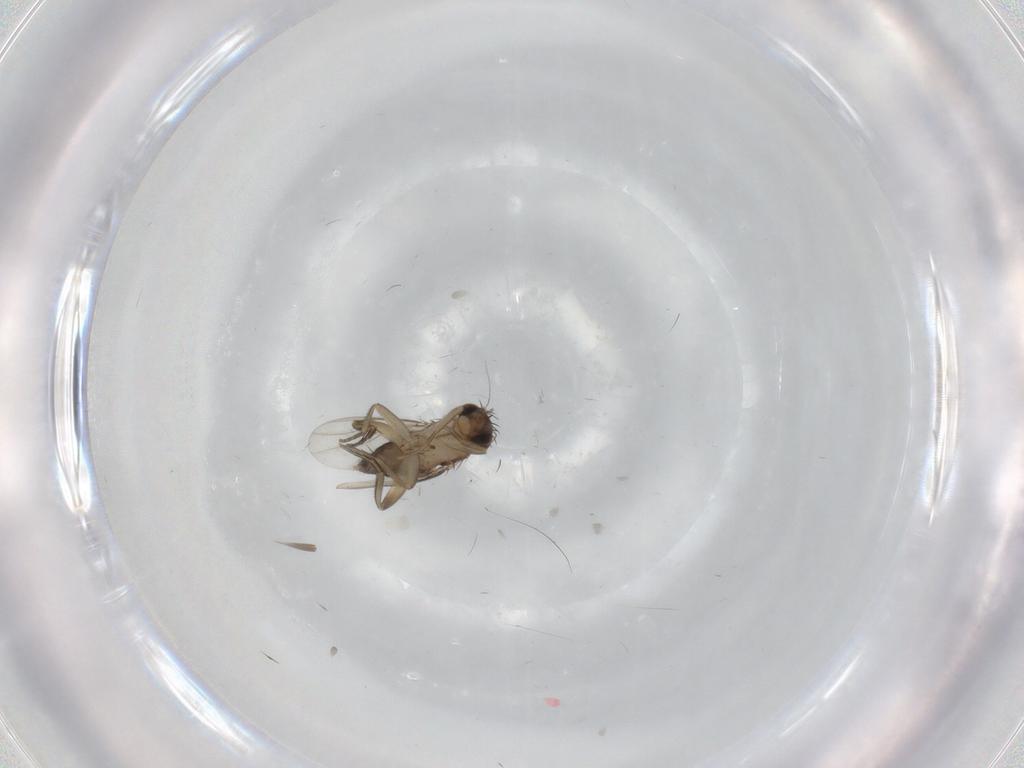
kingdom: Animalia
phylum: Arthropoda
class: Insecta
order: Diptera
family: Phoridae
